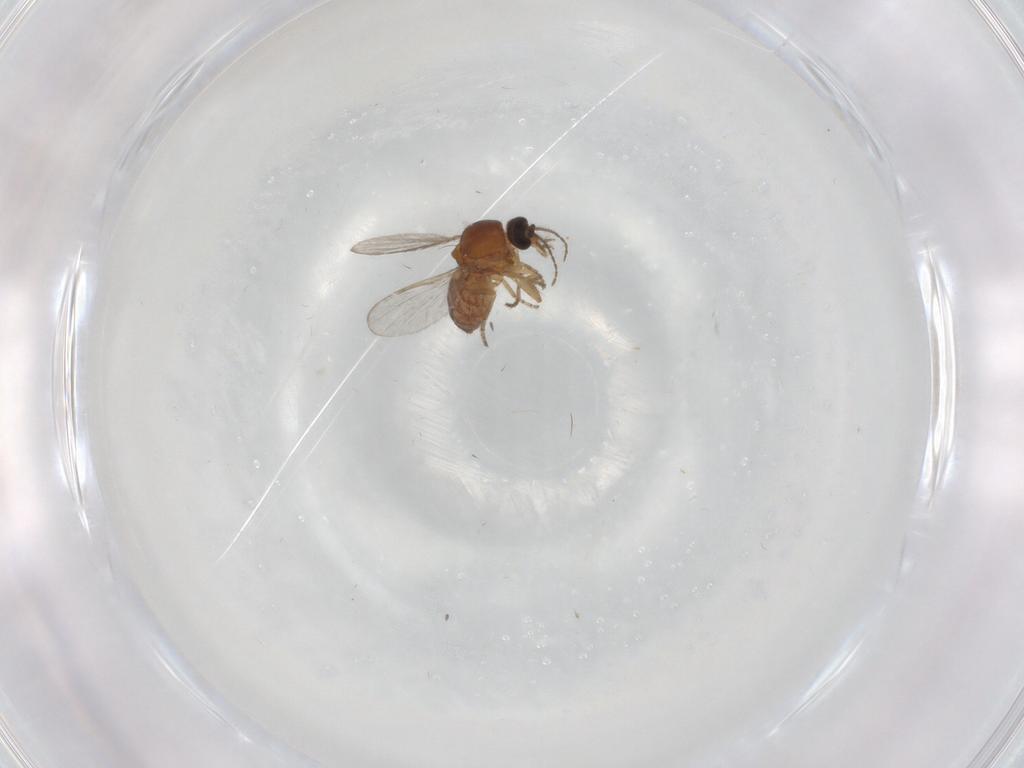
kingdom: Animalia
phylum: Arthropoda
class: Insecta
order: Diptera
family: Ceratopogonidae
